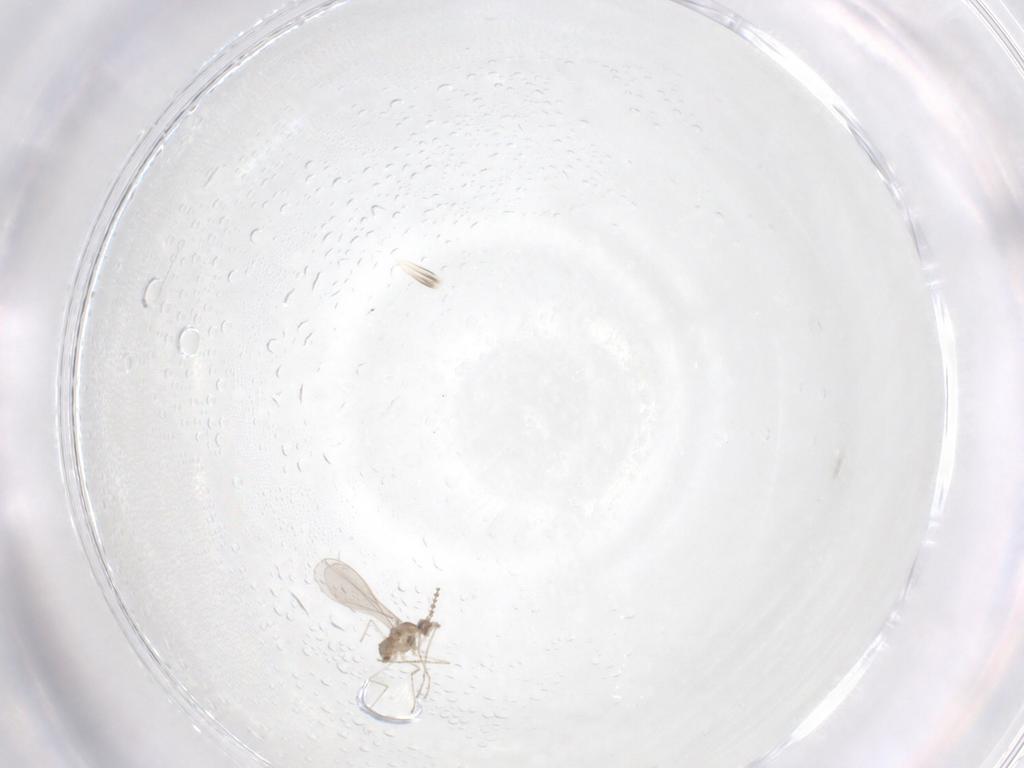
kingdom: Animalia
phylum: Arthropoda
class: Insecta
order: Diptera
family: Cecidomyiidae
